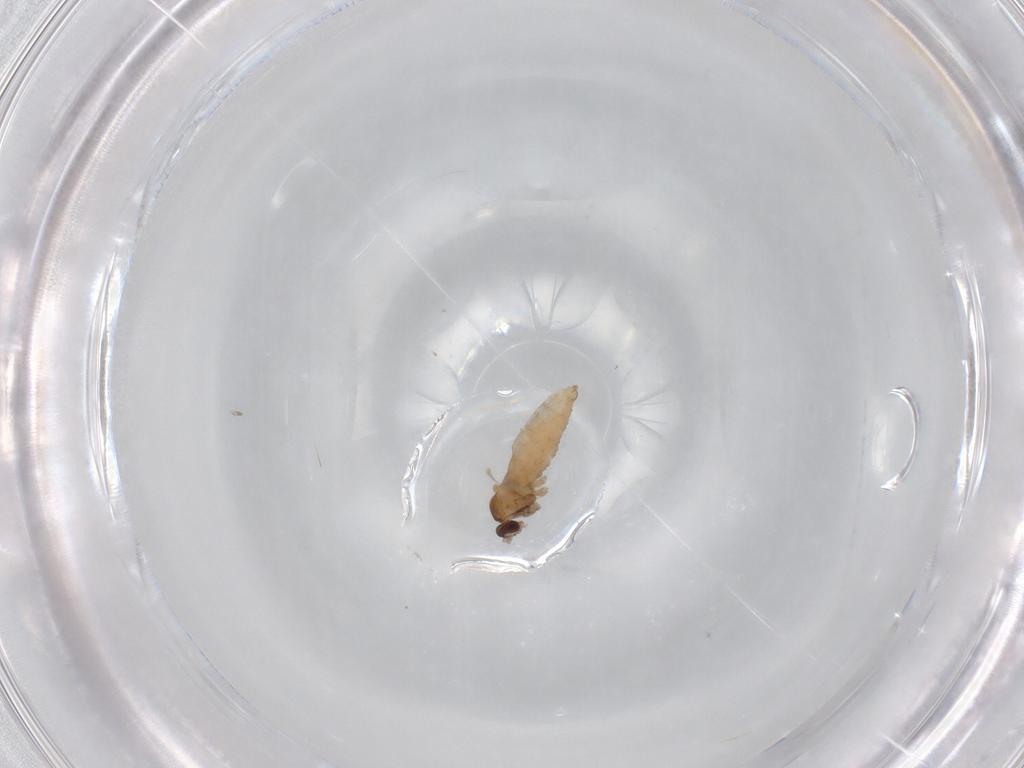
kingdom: Animalia
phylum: Arthropoda
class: Insecta
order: Diptera
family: Cecidomyiidae
